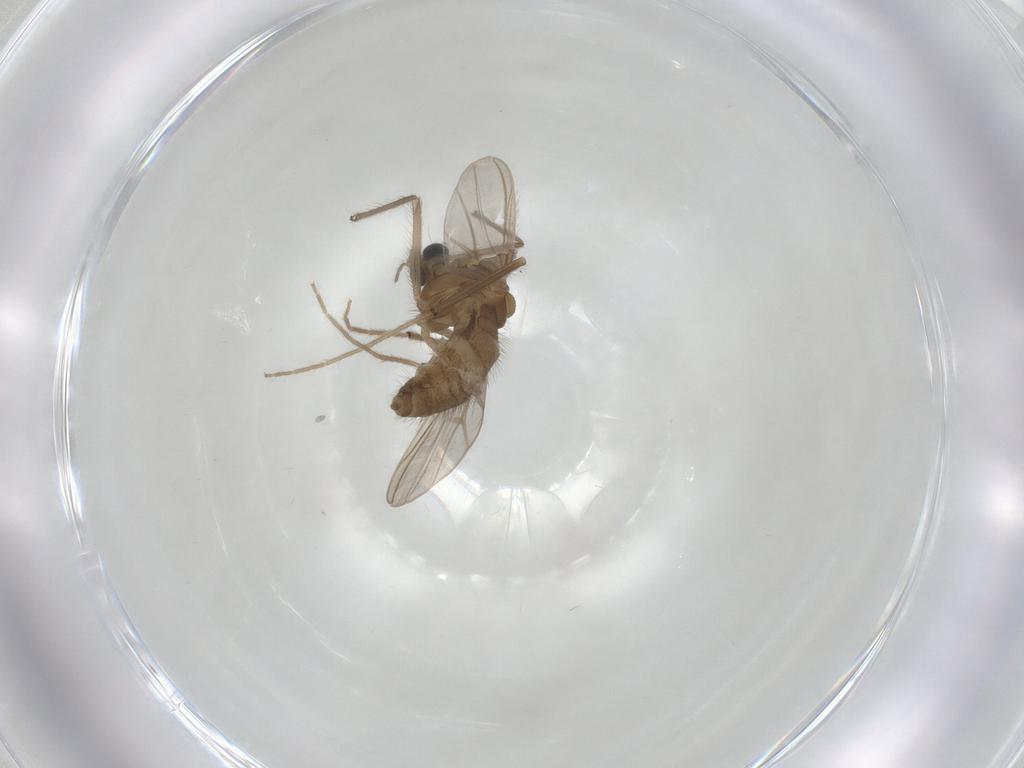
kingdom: Animalia
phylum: Arthropoda
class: Insecta
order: Diptera
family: Chironomidae
